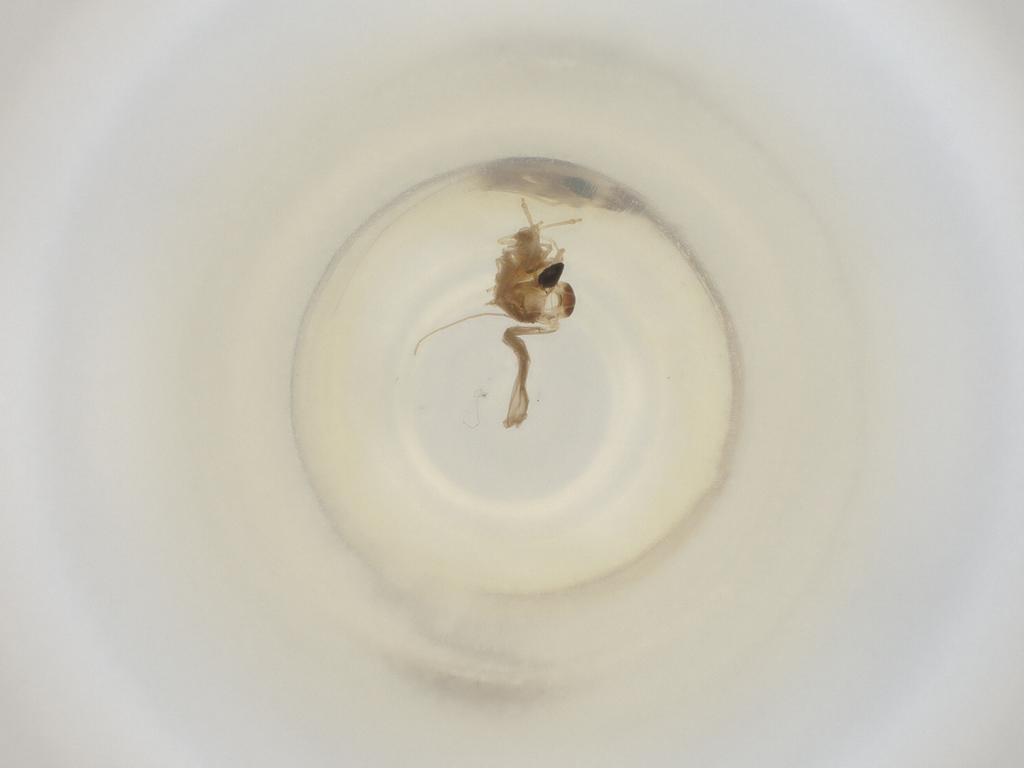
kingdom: Animalia
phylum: Arthropoda
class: Insecta
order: Diptera
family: Cecidomyiidae
